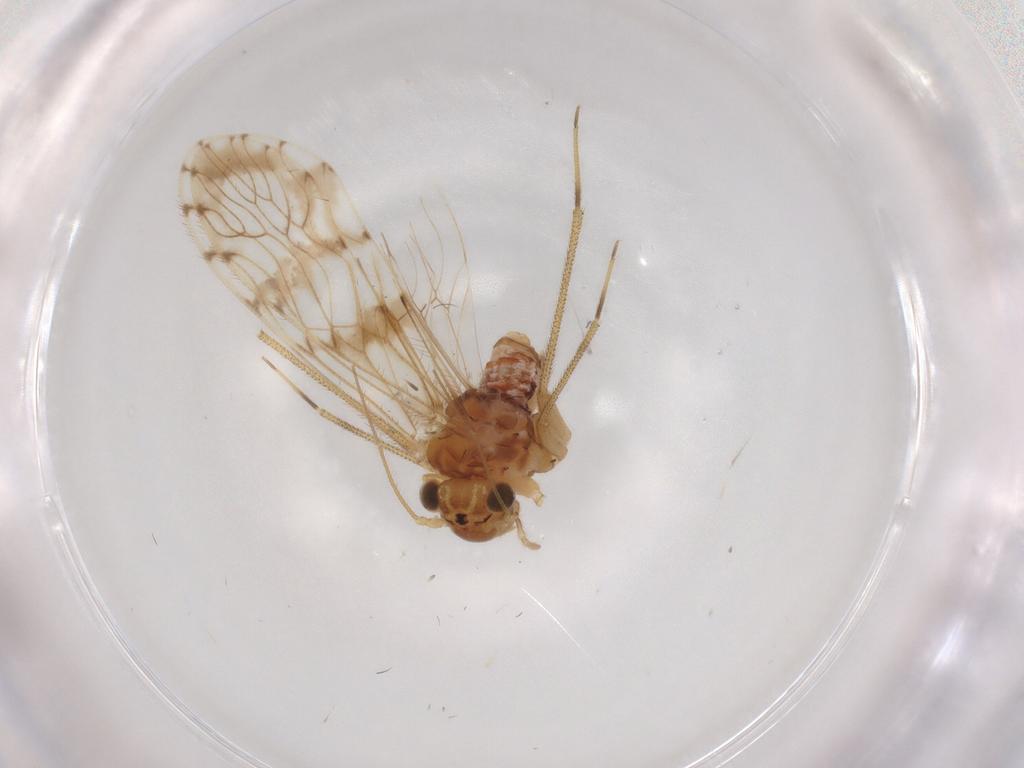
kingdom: Animalia
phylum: Arthropoda
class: Insecta
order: Psocodea
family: Epipsocidae
